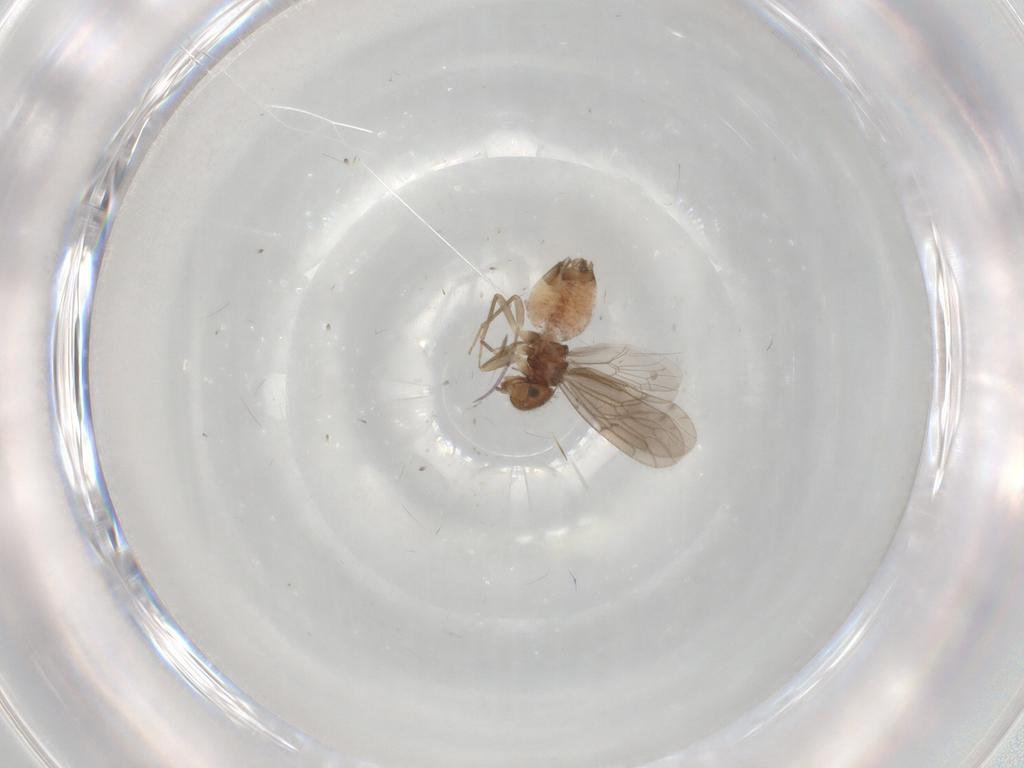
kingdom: Animalia
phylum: Arthropoda
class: Insecta
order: Psocodea
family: Ectopsocidae
